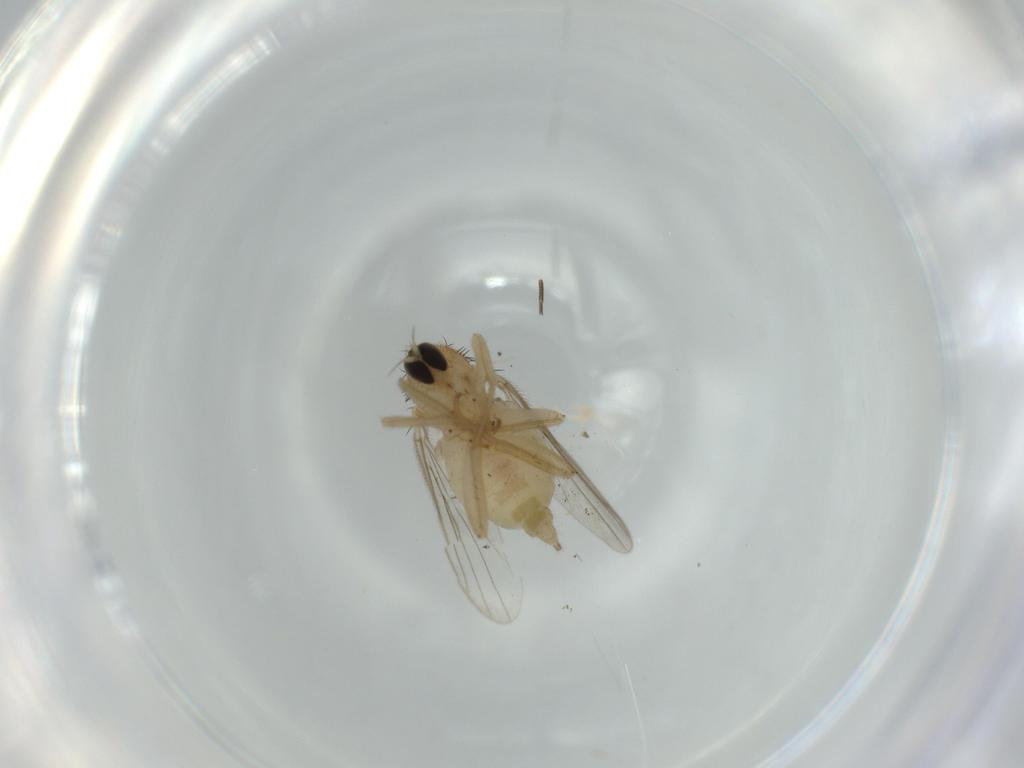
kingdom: Animalia
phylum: Arthropoda
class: Insecta
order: Diptera
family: Hybotidae
